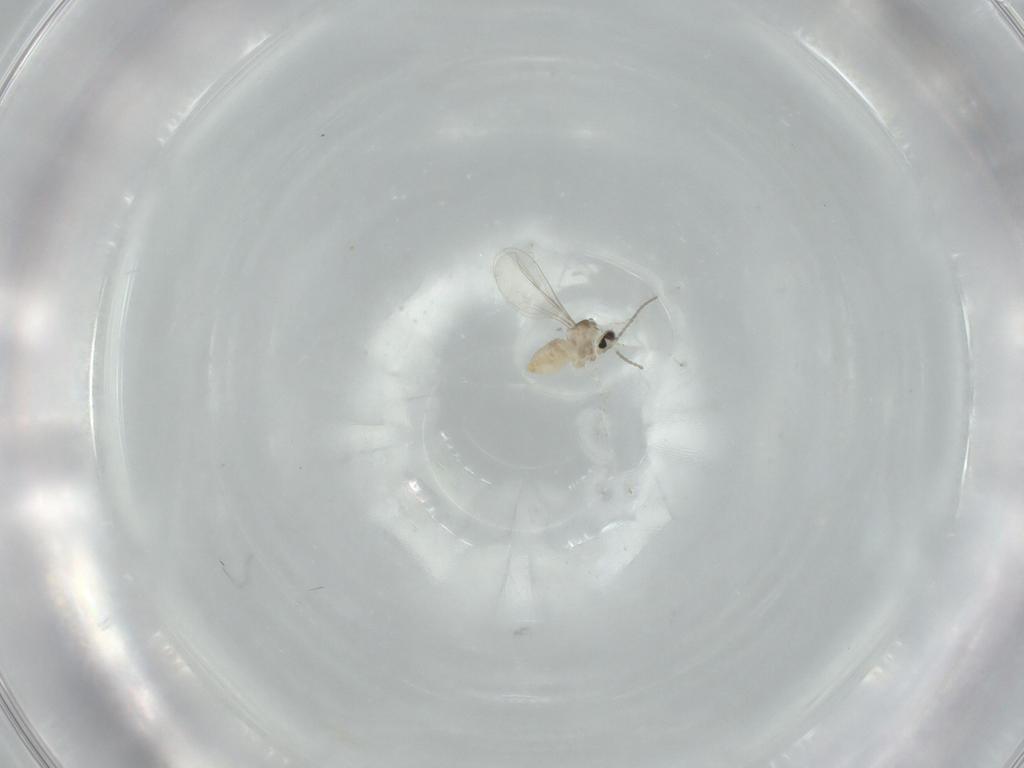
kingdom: Animalia
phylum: Arthropoda
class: Insecta
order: Diptera
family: Cecidomyiidae
